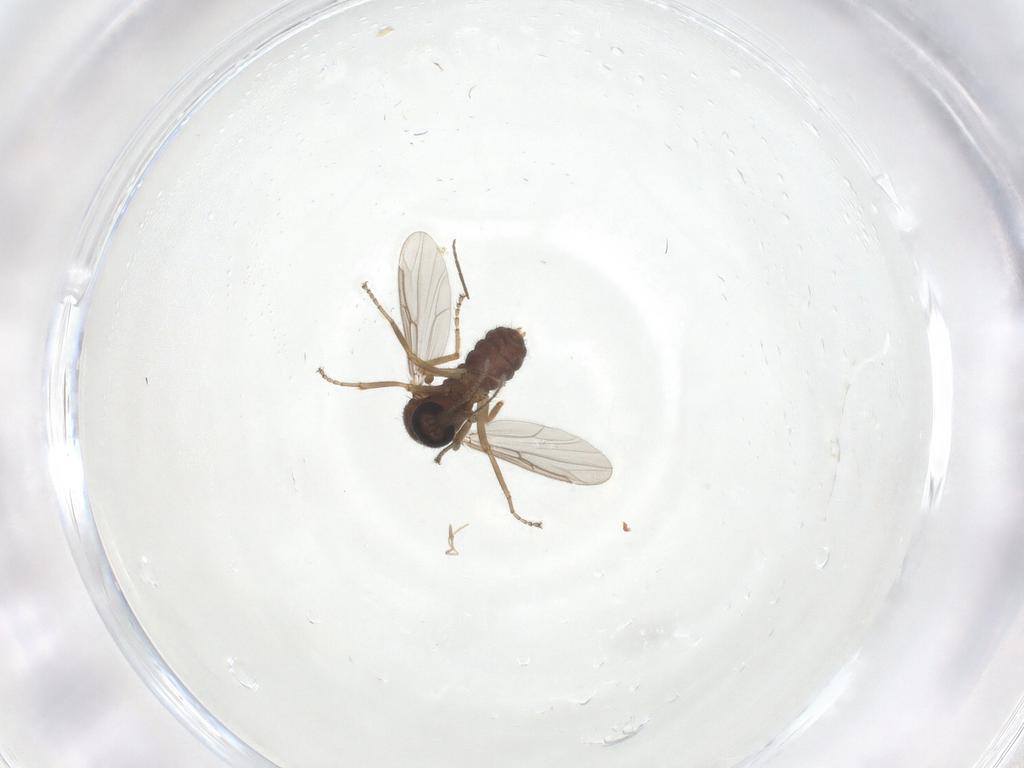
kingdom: Animalia
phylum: Arthropoda
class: Insecta
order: Diptera
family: Ceratopogonidae
